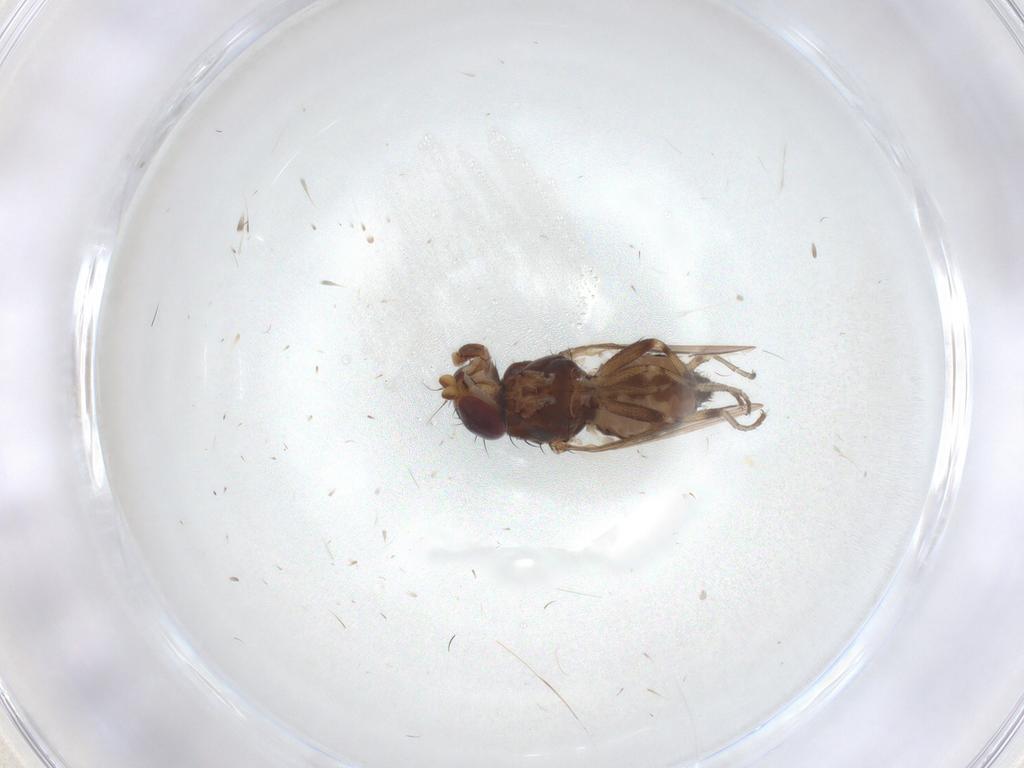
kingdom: Animalia
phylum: Arthropoda
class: Insecta
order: Diptera
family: Heleomyzidae
